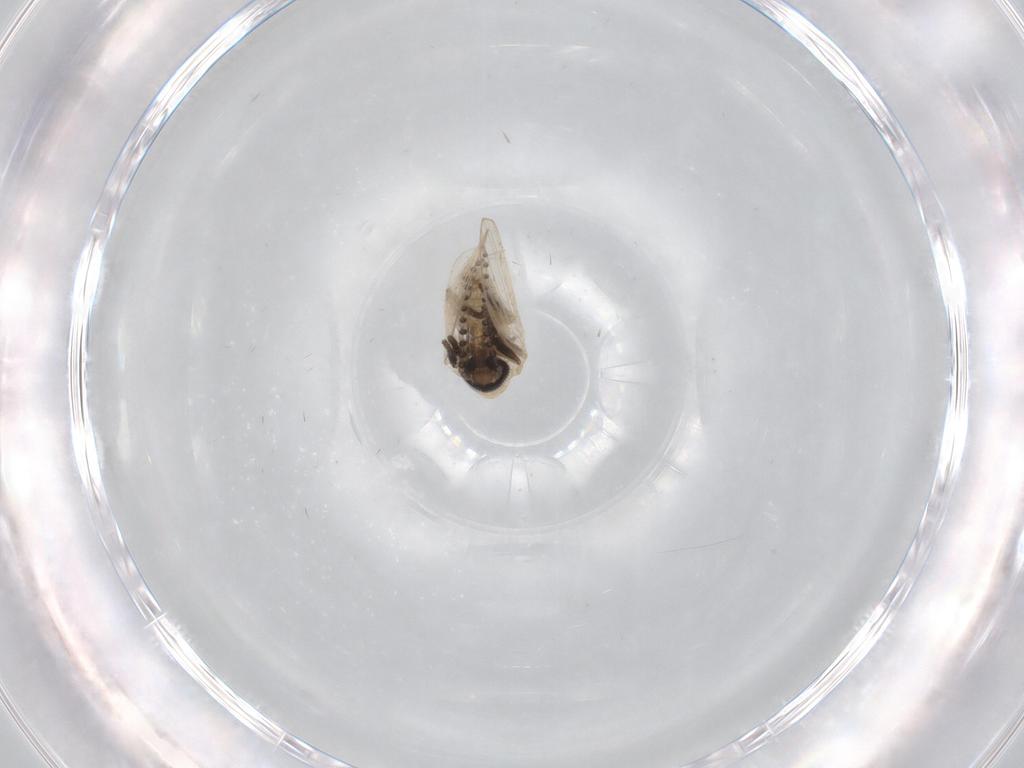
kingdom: Animalia
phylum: Arthropoda
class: Insecta
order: Diptera
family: Psychodidae
